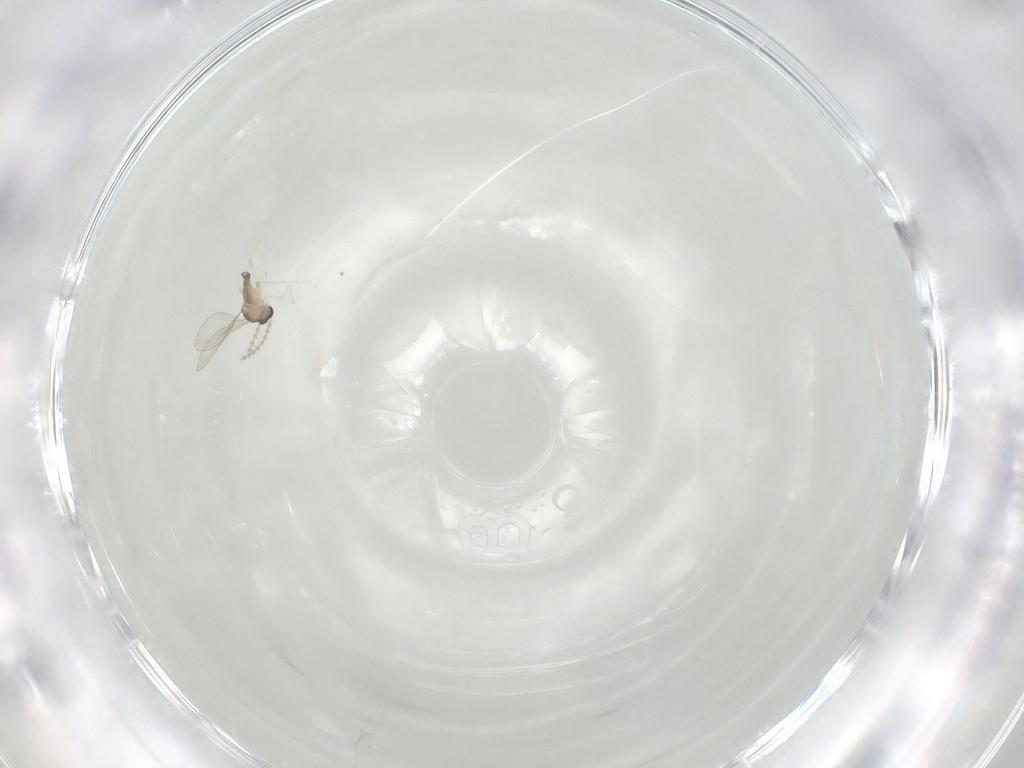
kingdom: Animalia
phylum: Arthropoda
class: Insecta
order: Diptera
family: Cecidomyiidae
